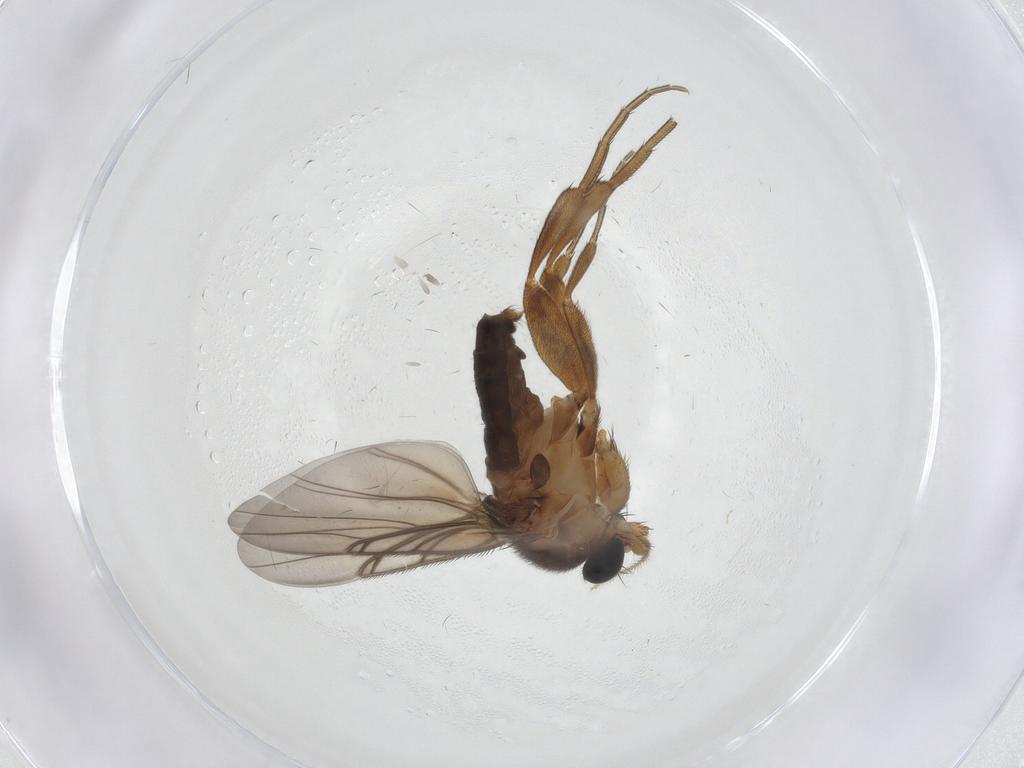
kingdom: Animalia
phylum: Arthropoda
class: Insecta
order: Diptera
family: Phoridae
